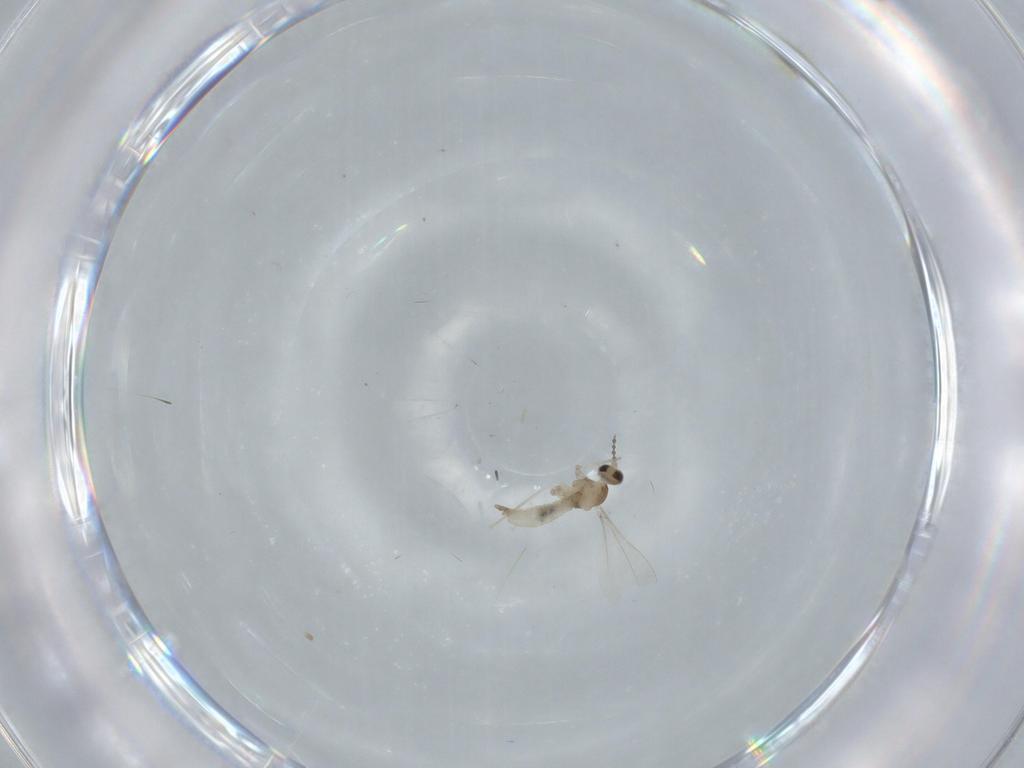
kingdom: Animalia
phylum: Arthropoda
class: Insecta
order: Diptera
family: Cecidomyiidae
